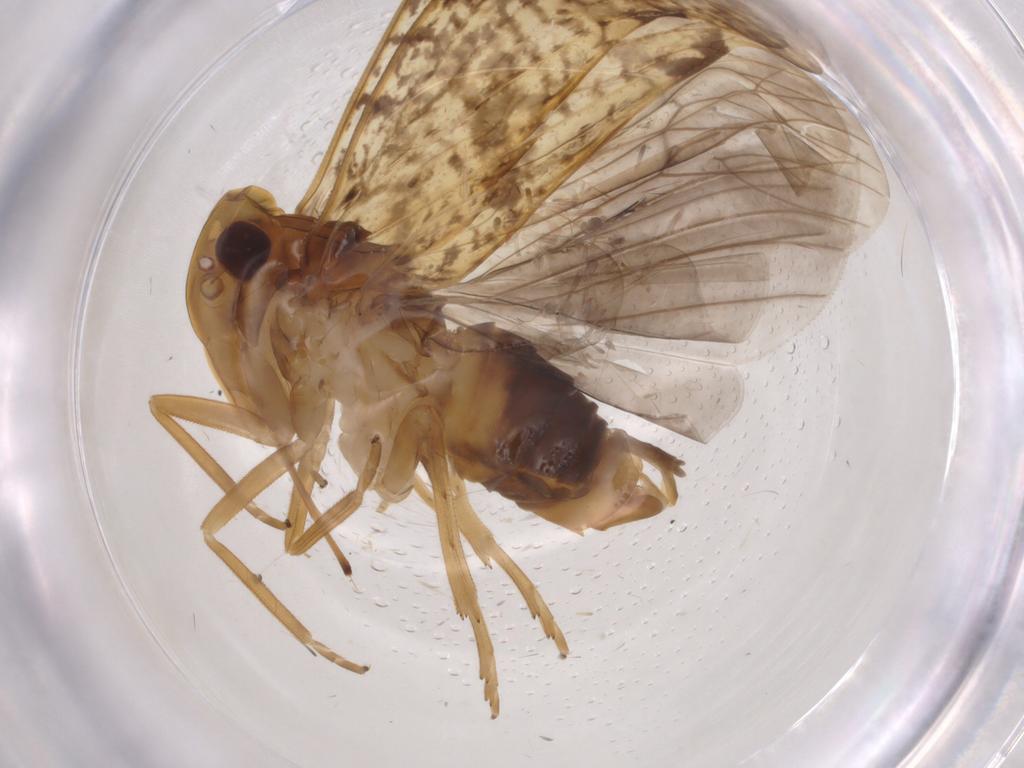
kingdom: Animalia
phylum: Arthropoda
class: Insecta
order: Hemiptera
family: Cixiidae
